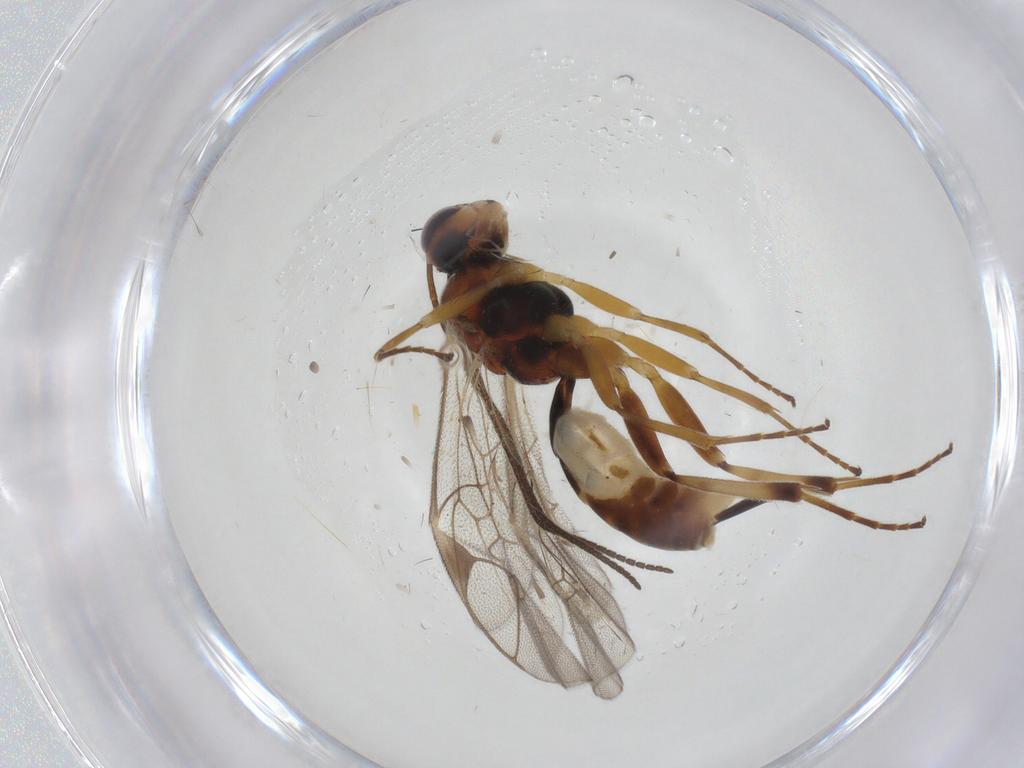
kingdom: Animalia
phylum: Arthropoda
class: Insecta
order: Hymenoptera
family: Ichneumonidae
